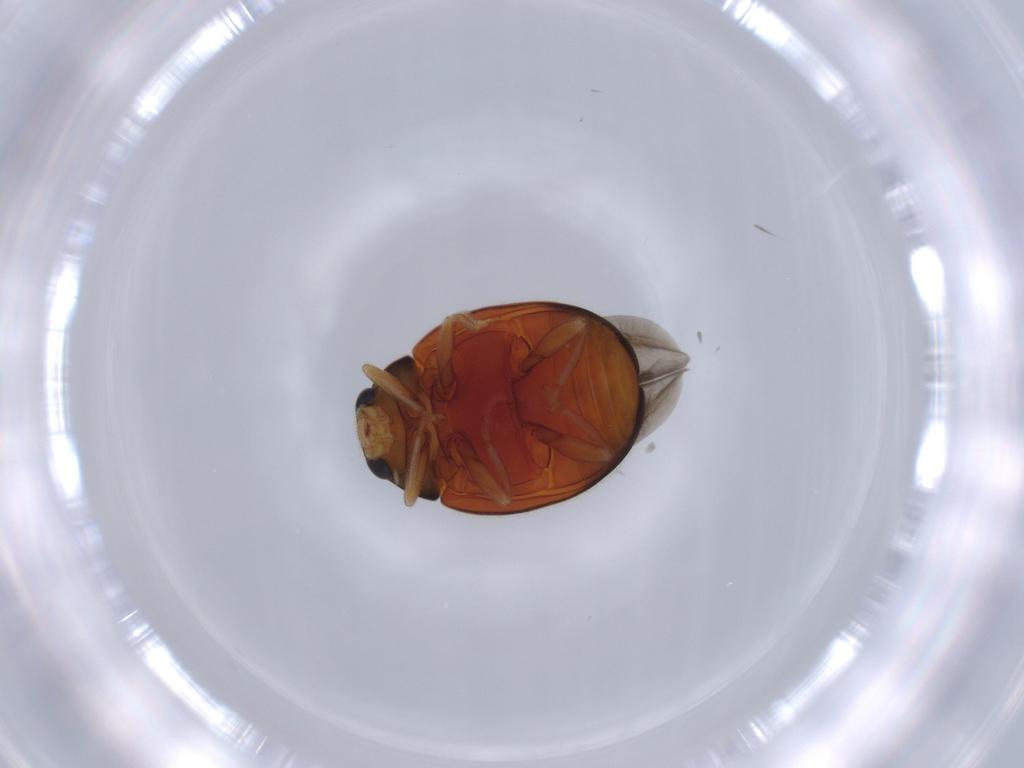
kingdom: Animalia
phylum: Arthropoda
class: Insecta
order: Coleoptera
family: Coccinellidae
